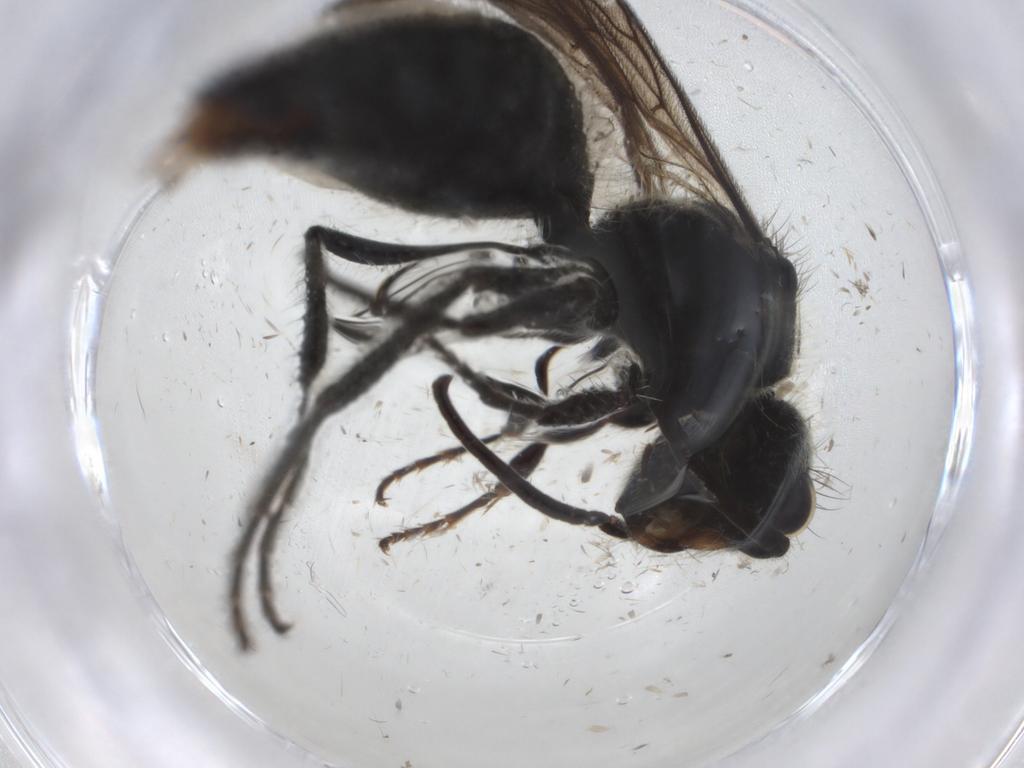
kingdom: Animalia
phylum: Arthropoda
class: Insecta
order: Hymenoptera
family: Mutillidae
